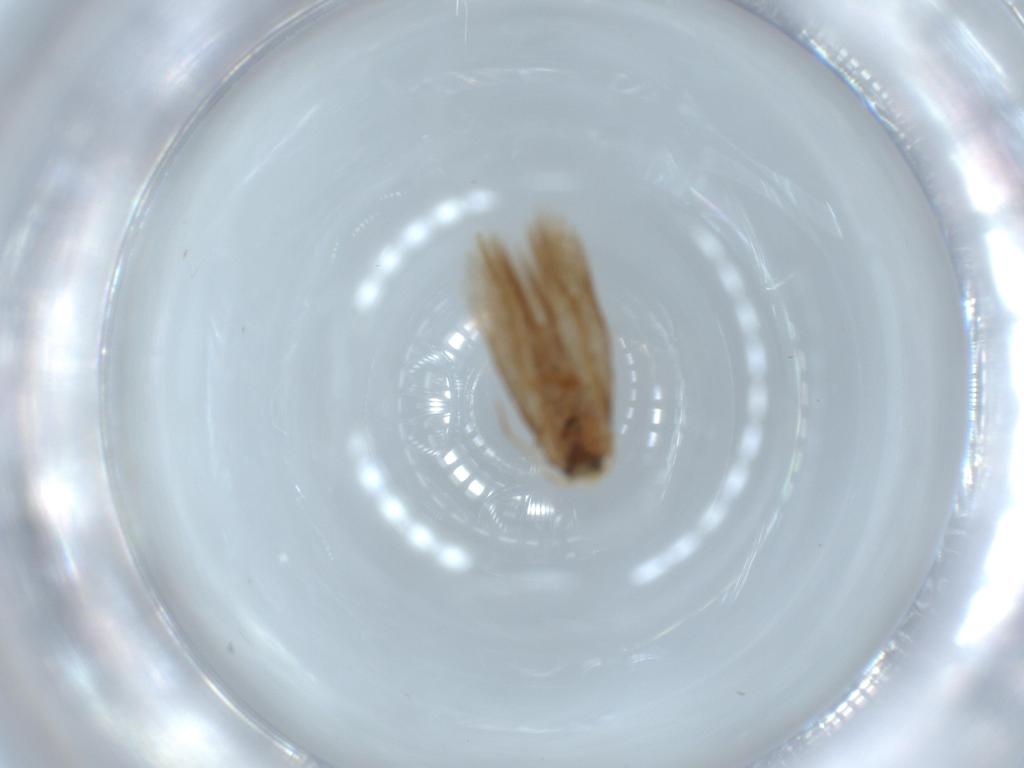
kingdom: Animalia
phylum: Arthropoda
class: Insecta
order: Lepidoptera
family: Nepticulidae
